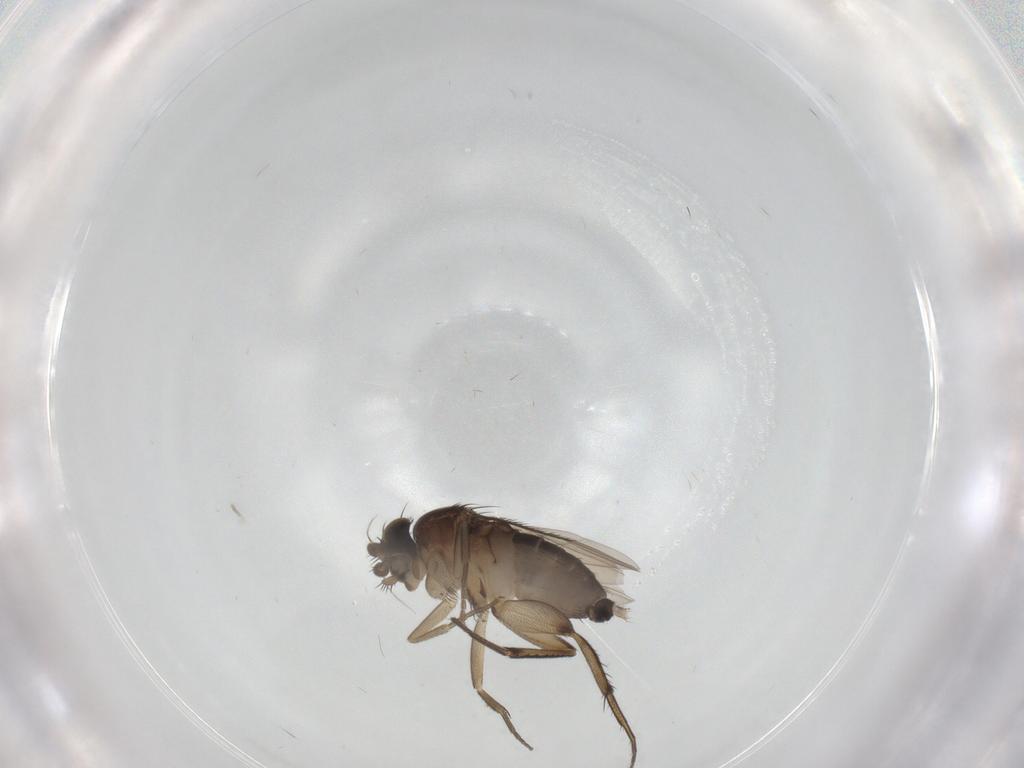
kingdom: Animalia
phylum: Arthropoda
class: Insecta
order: Diptera
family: Phoridae
